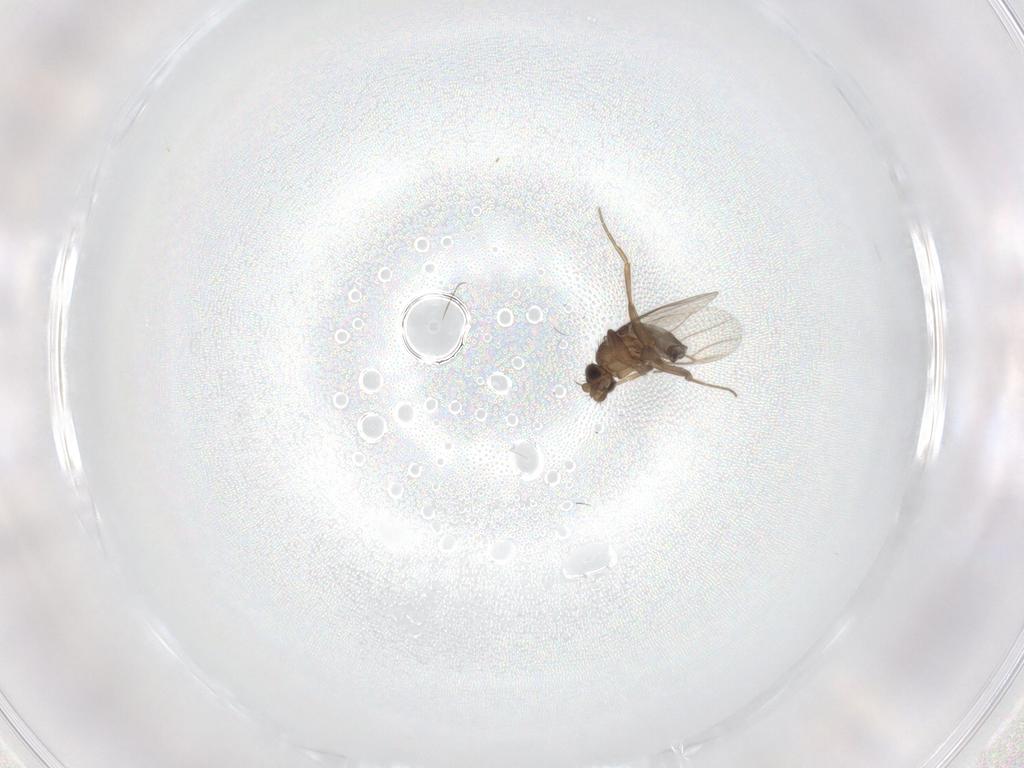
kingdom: Animalia
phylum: Arthropoda
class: Insecta
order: Diptera
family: Chironomidae
